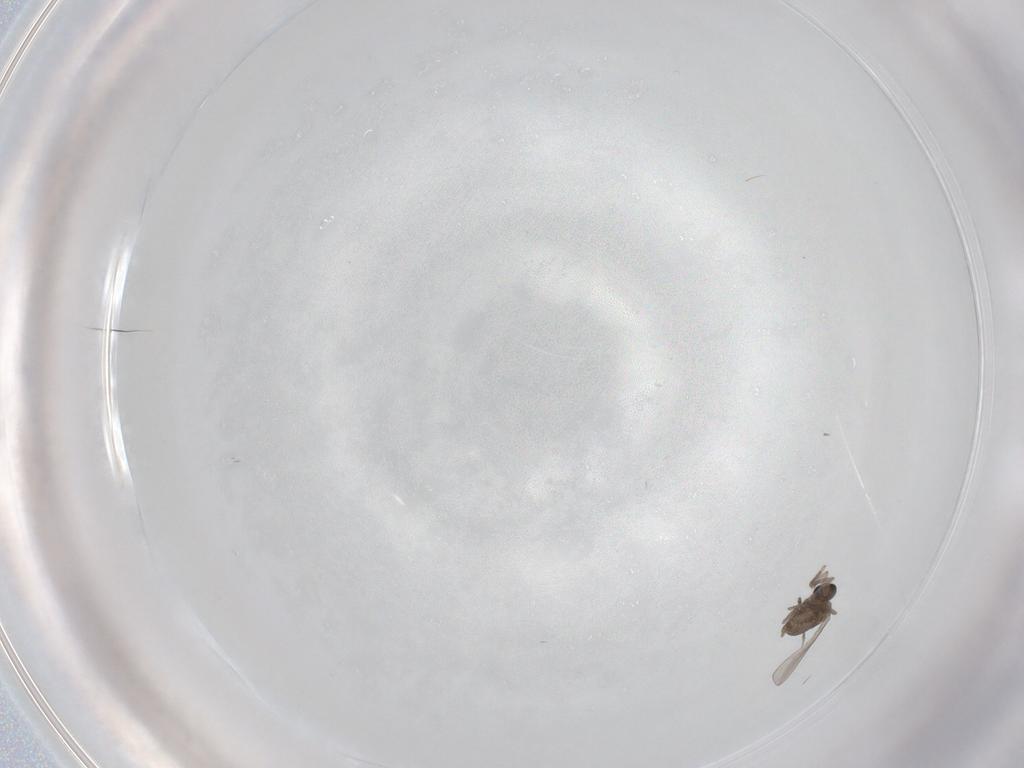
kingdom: Animalia
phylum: Arthropoda
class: Insecta
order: Diptera
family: Cecidomyiidae
